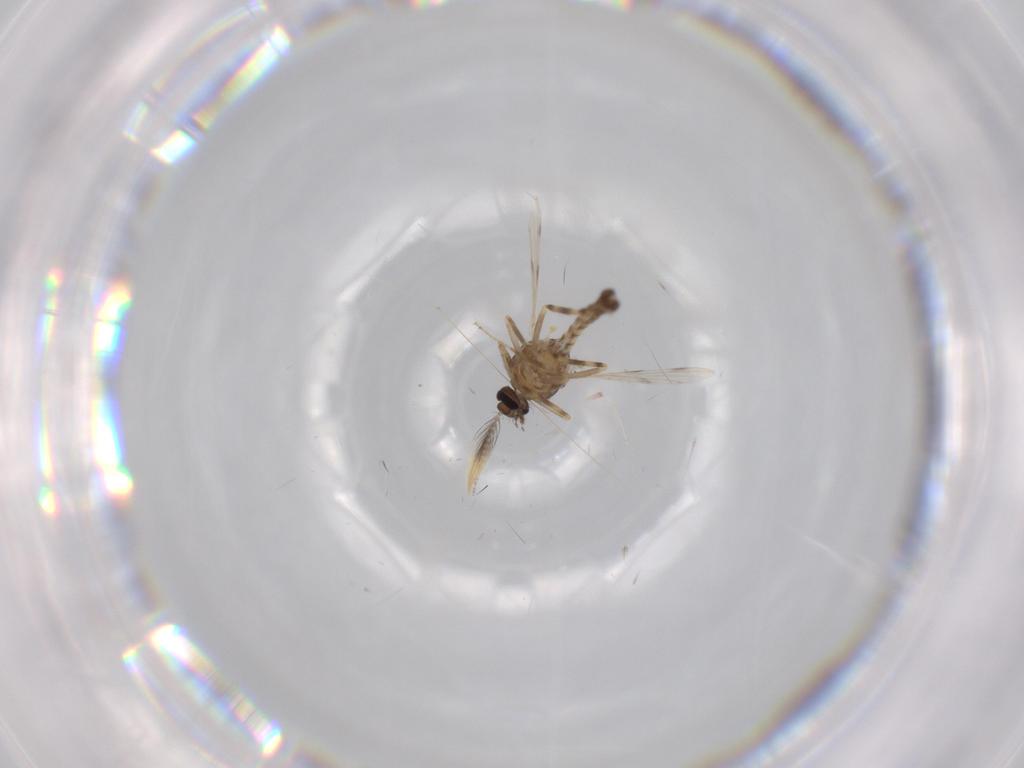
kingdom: Animalia
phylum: Arthropoda
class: Insecta
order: Diptera
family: Ceratopogonidae
